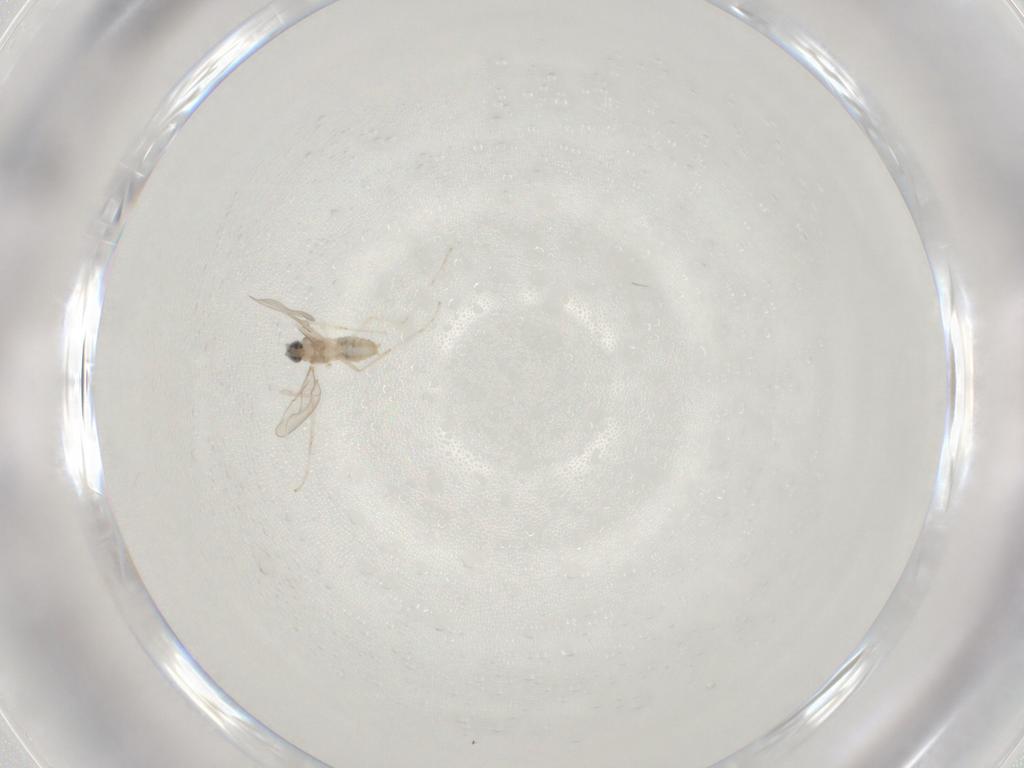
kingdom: Animalia
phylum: Arthropoda
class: Insecta
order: Diptera
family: Cecidomyiidae
